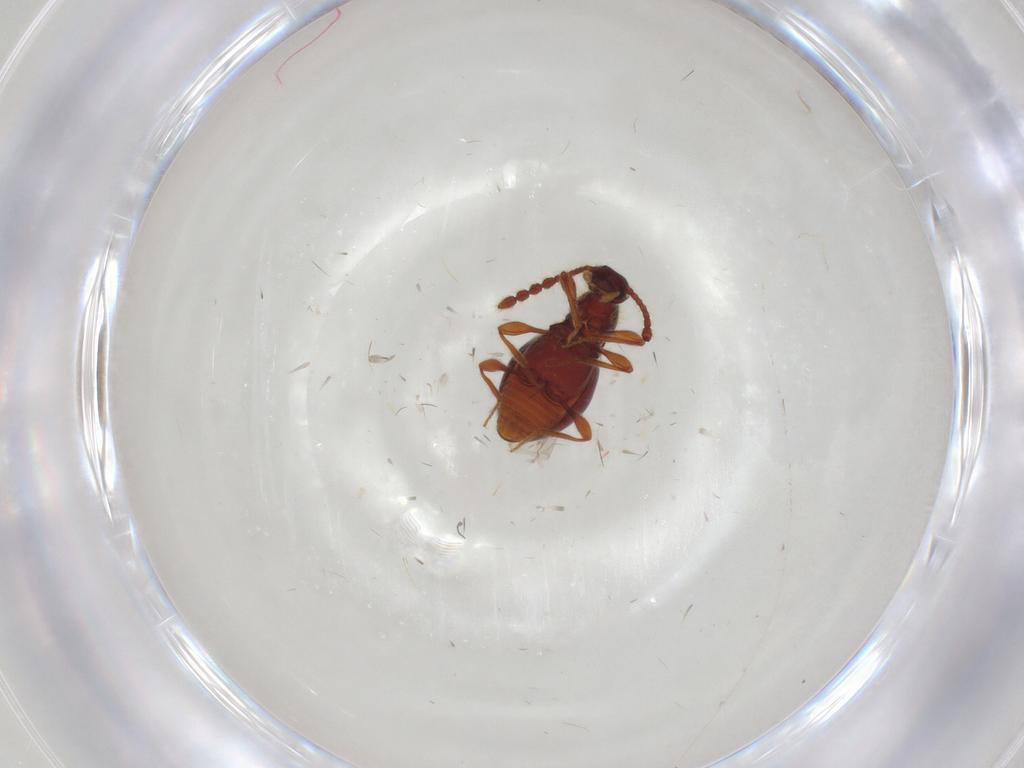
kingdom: Animalia
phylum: Arthropoda
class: Insecta
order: Coleoptera
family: Staphylinidae
